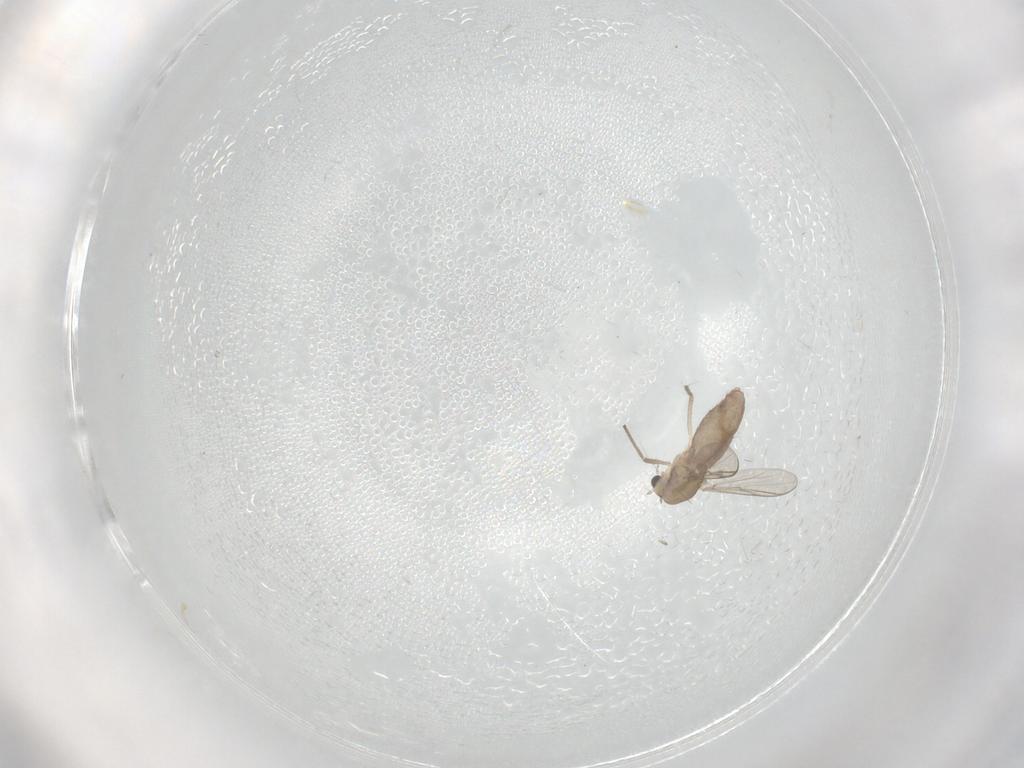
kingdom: Animalia
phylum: Arthropoda
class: Insecta
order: Diptera
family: Chironomidae
